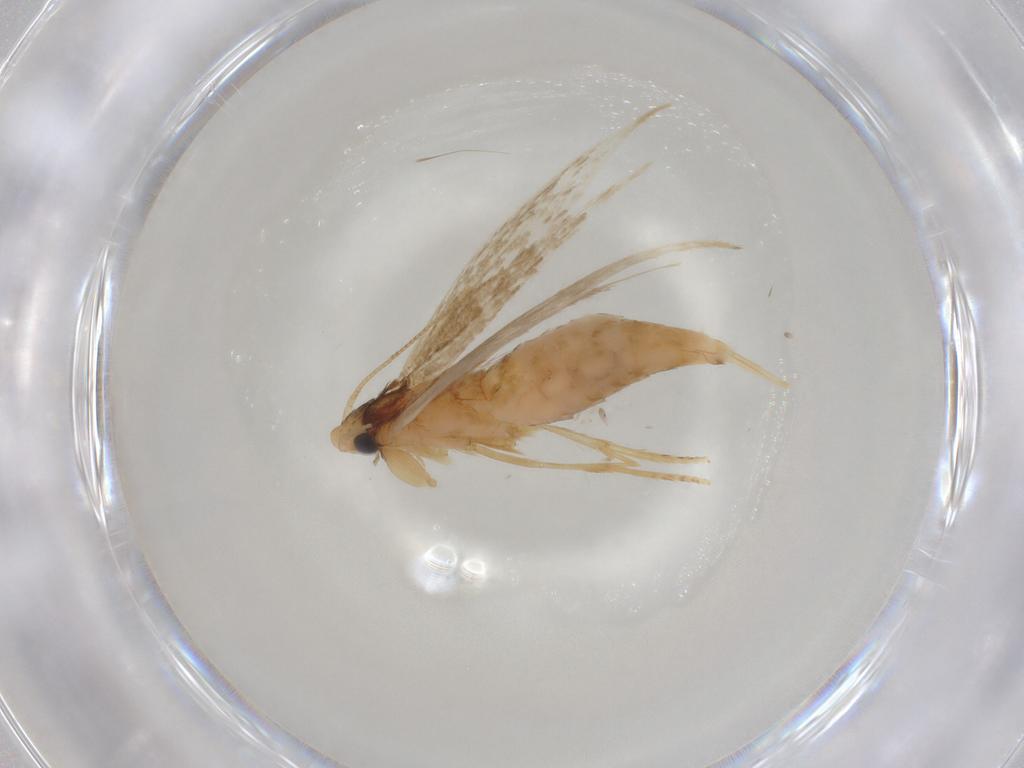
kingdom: Animalia
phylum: Arthropoda
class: Insecta
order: Lepidoptera
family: Tineidae
